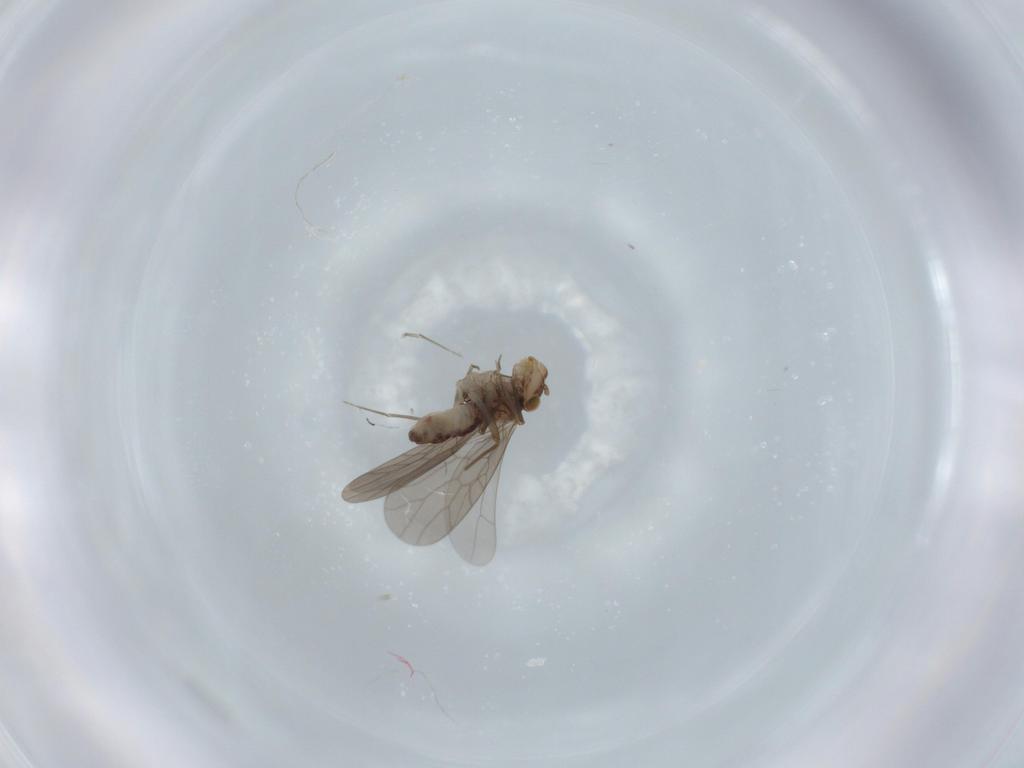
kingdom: Animalia
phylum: Arthropoda
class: Insecta
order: Psocodea
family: Lepidopsocidae
